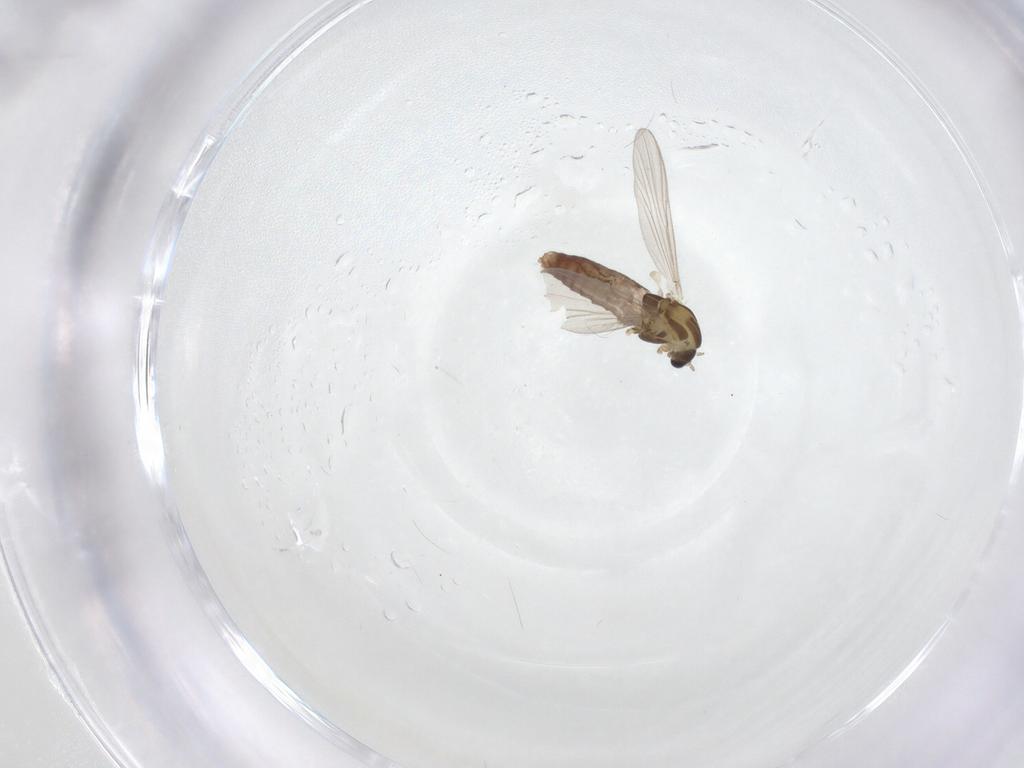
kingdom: Animalia
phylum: Arthropoda
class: Insecta
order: Diptera
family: Chironomidae
